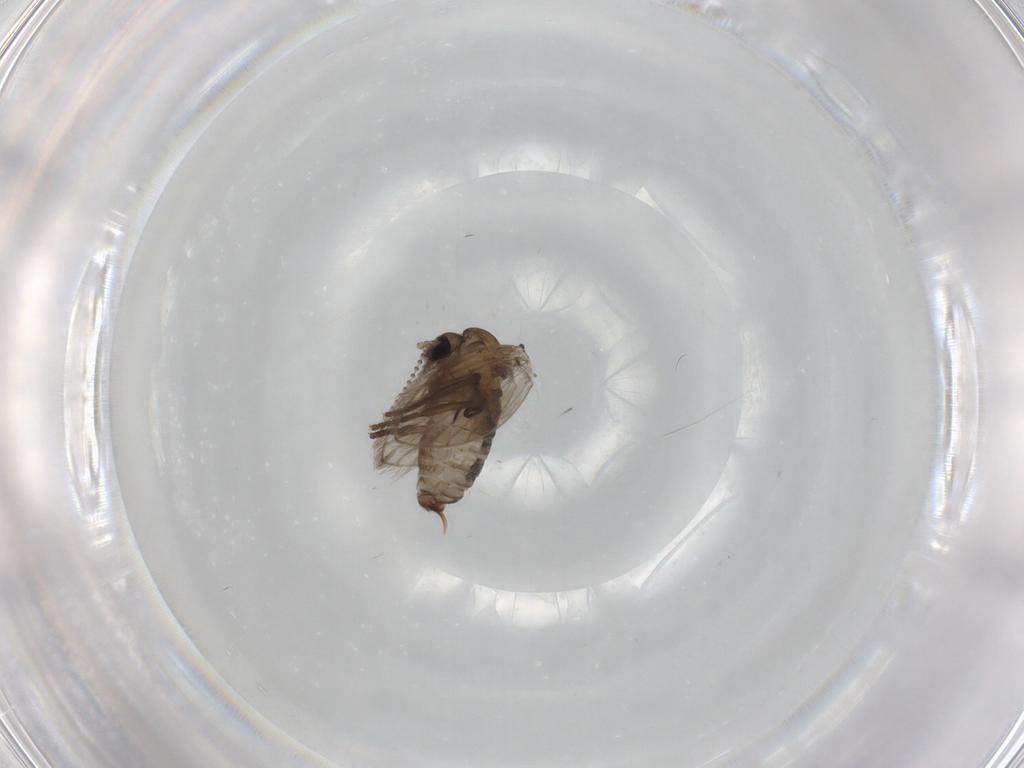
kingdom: Animalia
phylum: Arthropoda
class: Insecta
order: Diptera
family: Psychodidae
